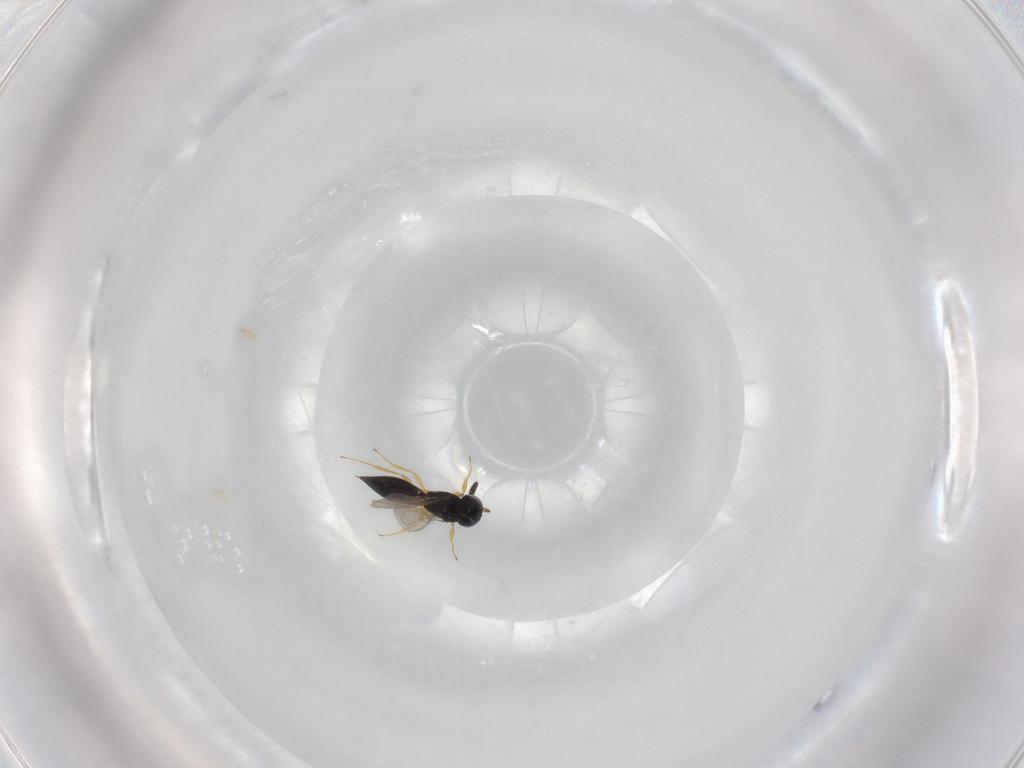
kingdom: Animalia
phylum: Arthropoda
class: Insecta
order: Hymenoptera
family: Scelionidae
